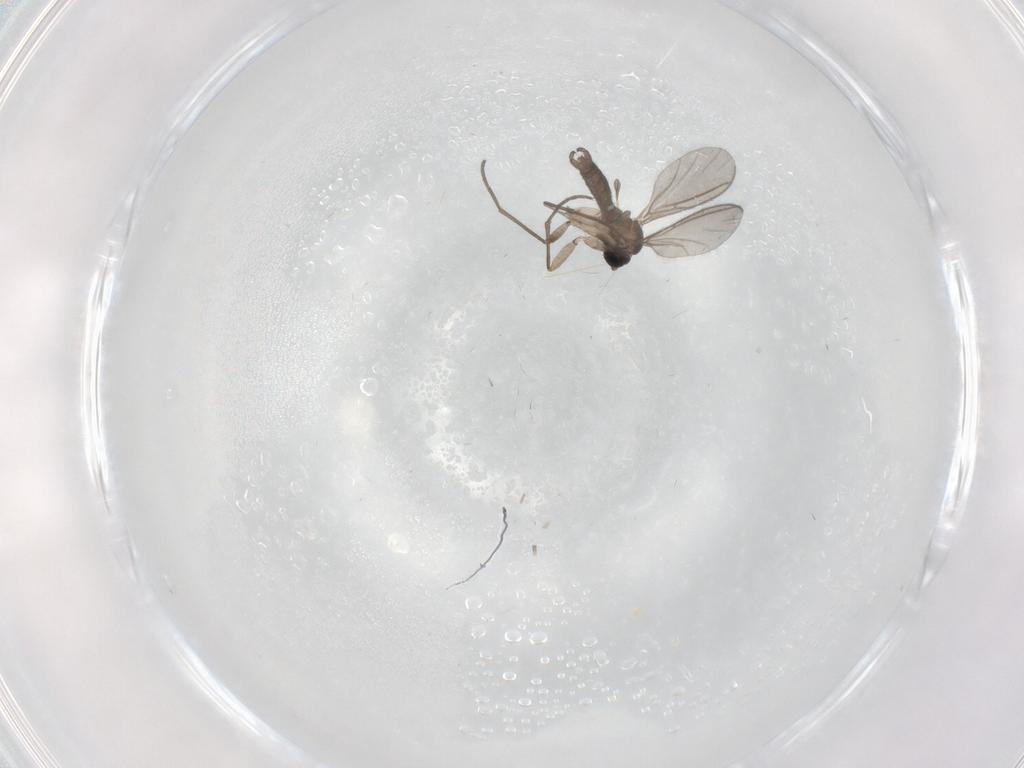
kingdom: Animalia
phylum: Arthropoda
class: Insecta
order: Diptera
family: Sciaridae
